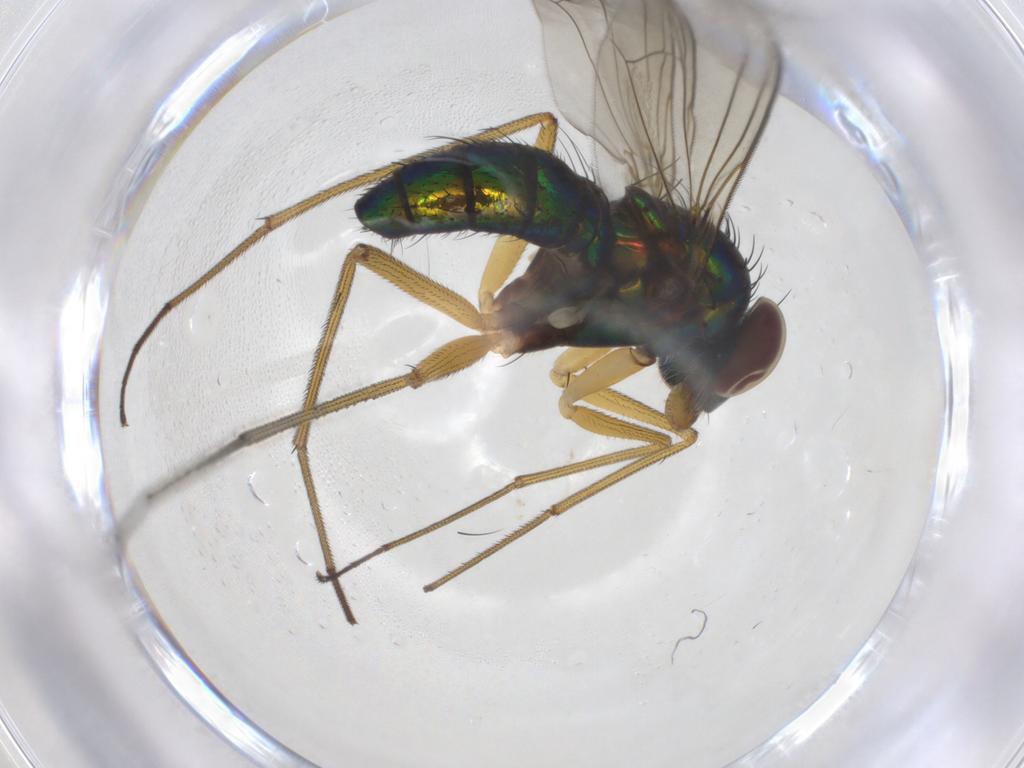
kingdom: Animalia
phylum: Arthropoda
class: Insecta
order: Diptera
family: Dolichopodidae
